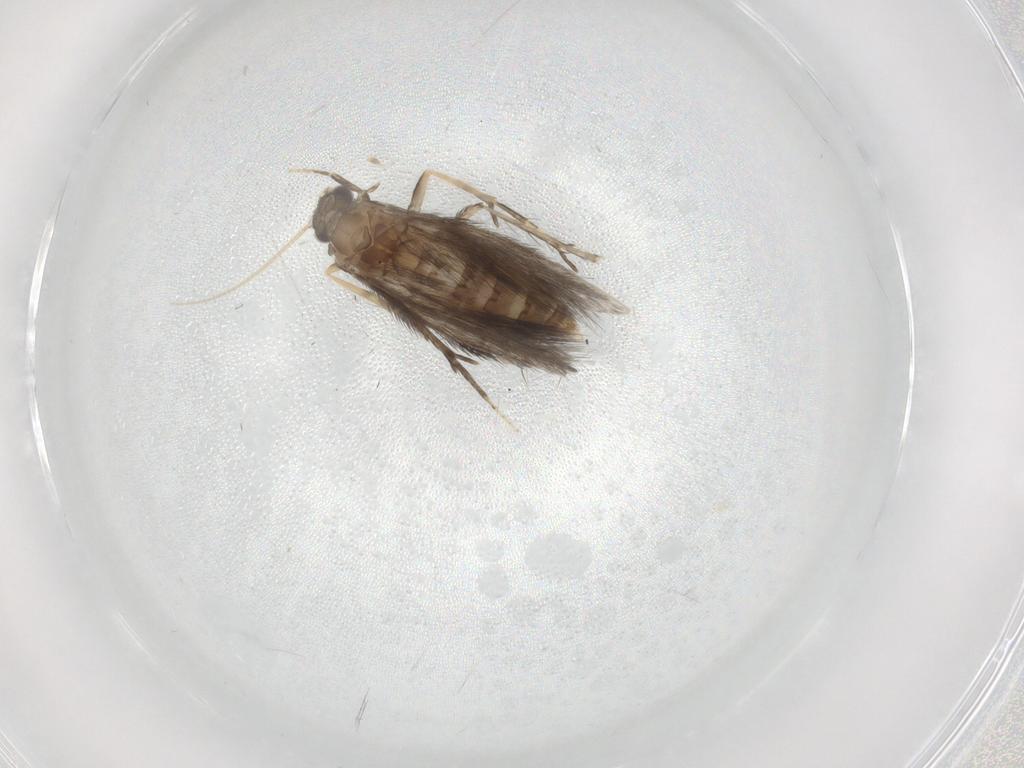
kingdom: Animalia
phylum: Arthropoda
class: Insecta
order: Trichoptera
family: Hydroptilidae
